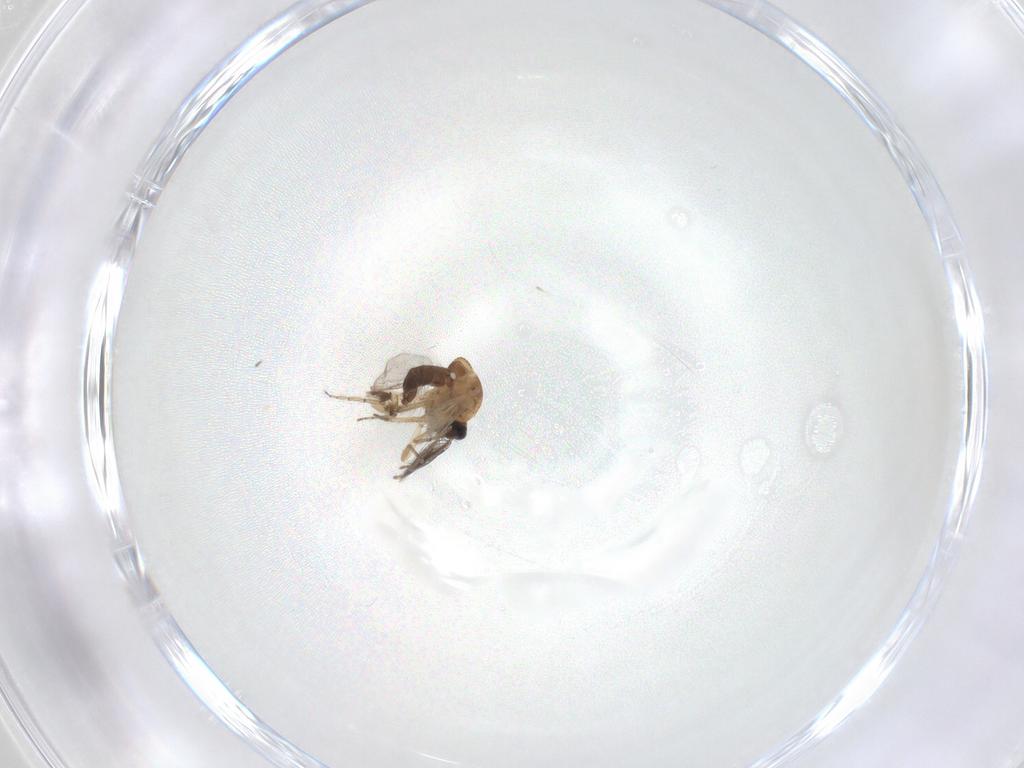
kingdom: Animalia
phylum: Arthropoda
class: Insecta
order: Diptera
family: Ceratopogonidae
